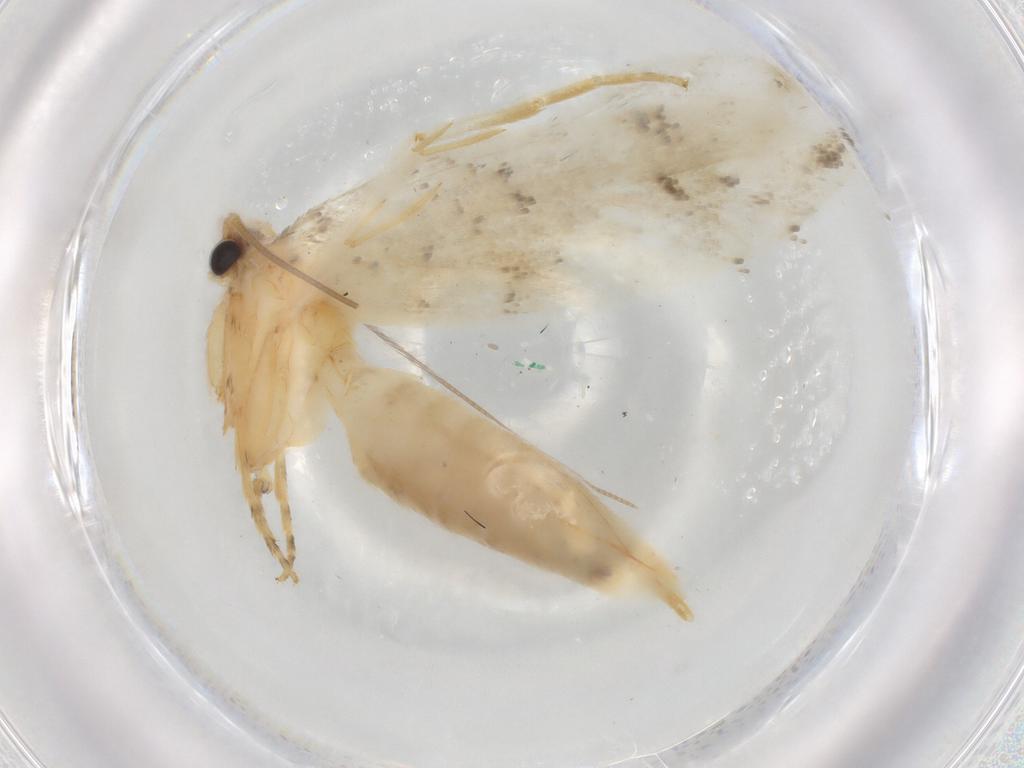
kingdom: Animalia
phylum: Arthropoda
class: Insecta
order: Lepidoptera
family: Tineidae
